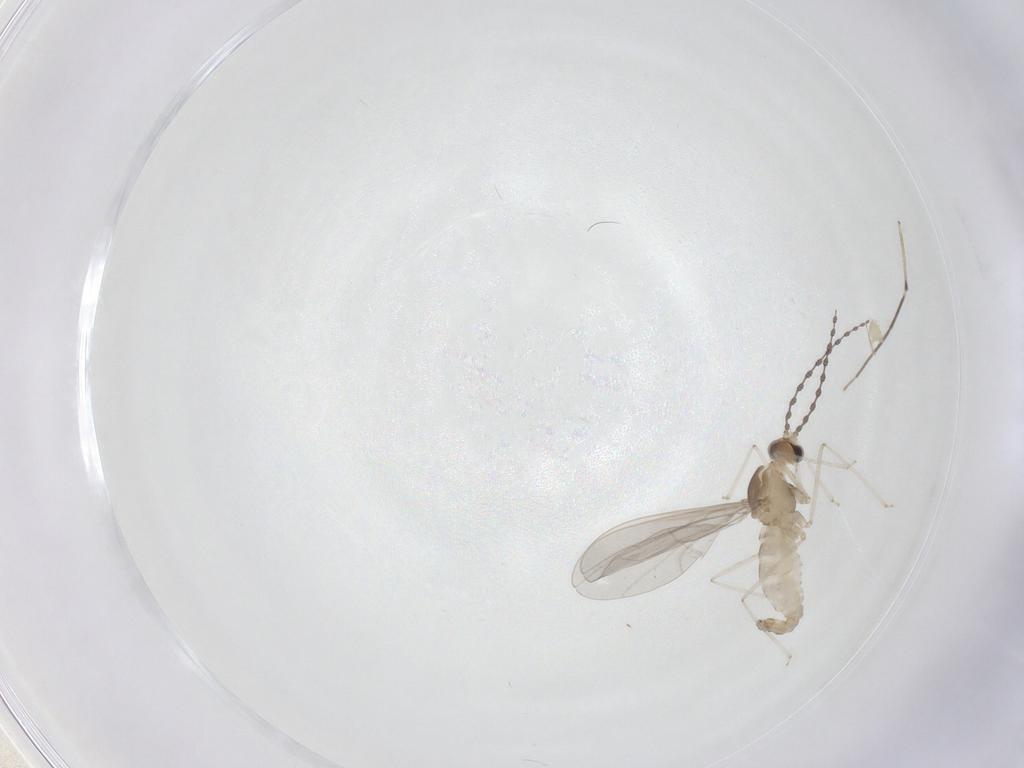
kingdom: Animalia
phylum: Arthropoda
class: Insecta
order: Diptera
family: Cecidomyiidae
